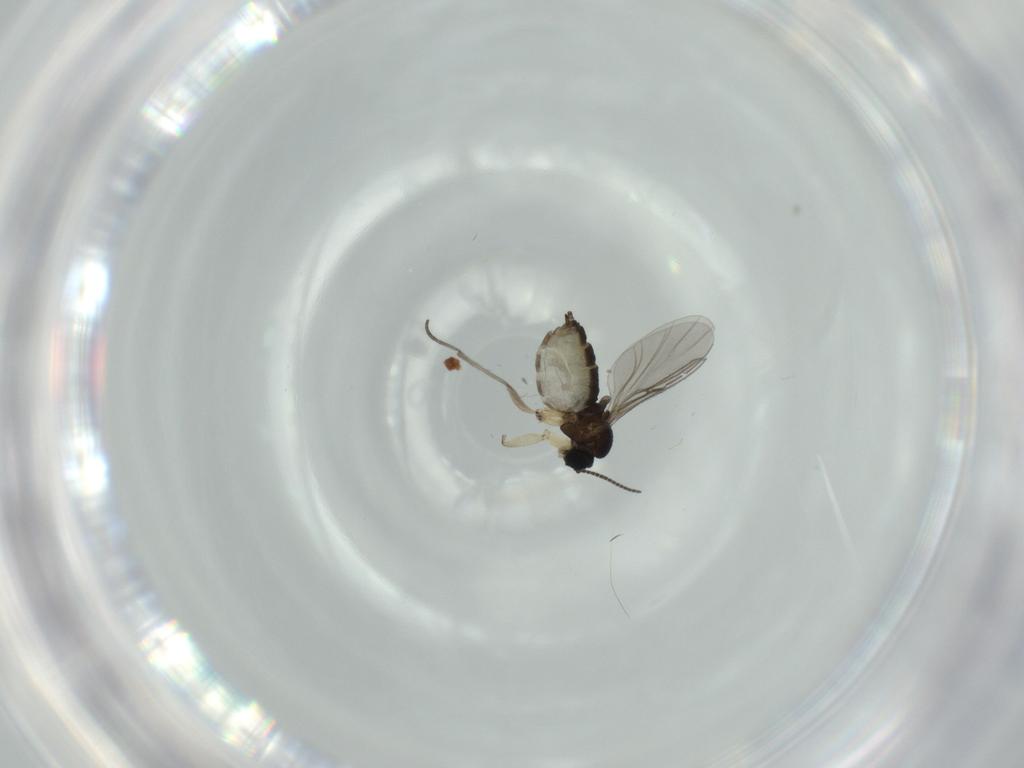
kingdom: Animalia
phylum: Arthropoda
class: Insecta
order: Diptera
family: Sciaridae
